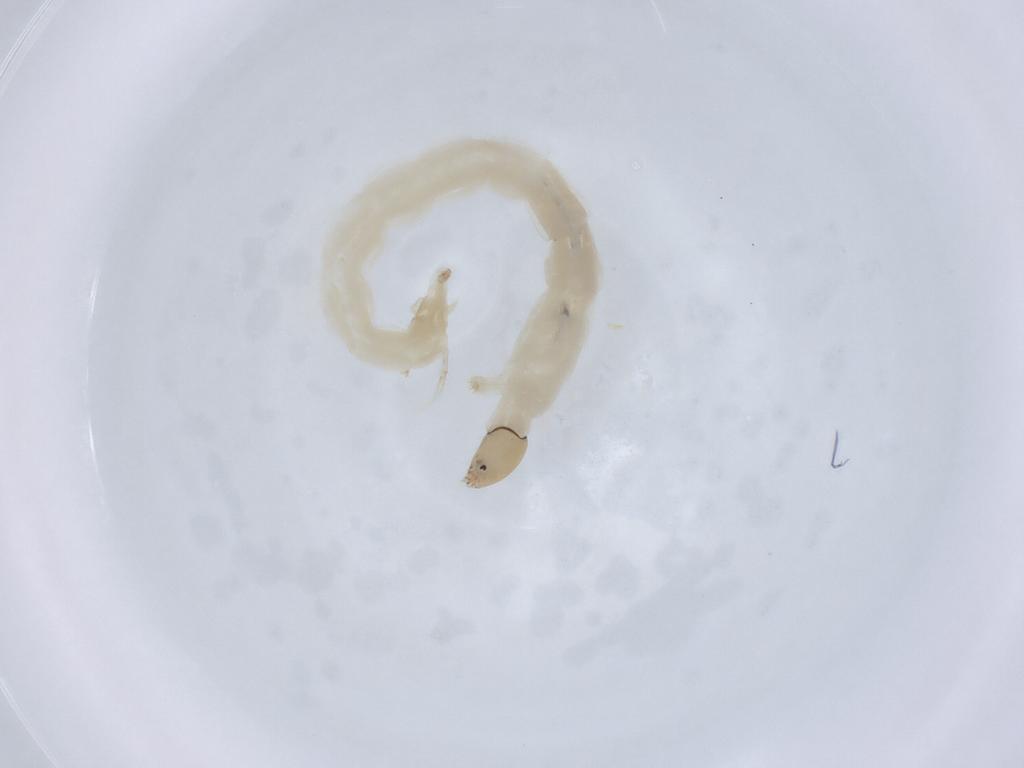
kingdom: Animalia
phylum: Arthropoda
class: Insecta
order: Diptera
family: Chironomidae
